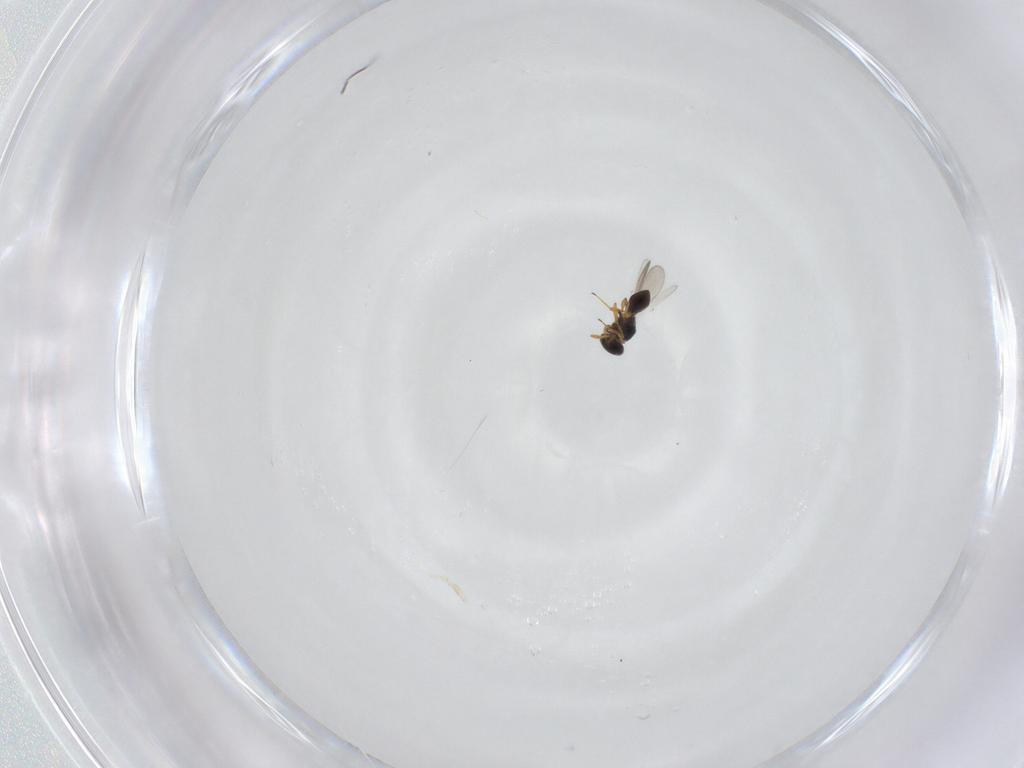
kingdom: Animalia
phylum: Arthropoda
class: Insecta
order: Hymenoptera
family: Platygastridae
